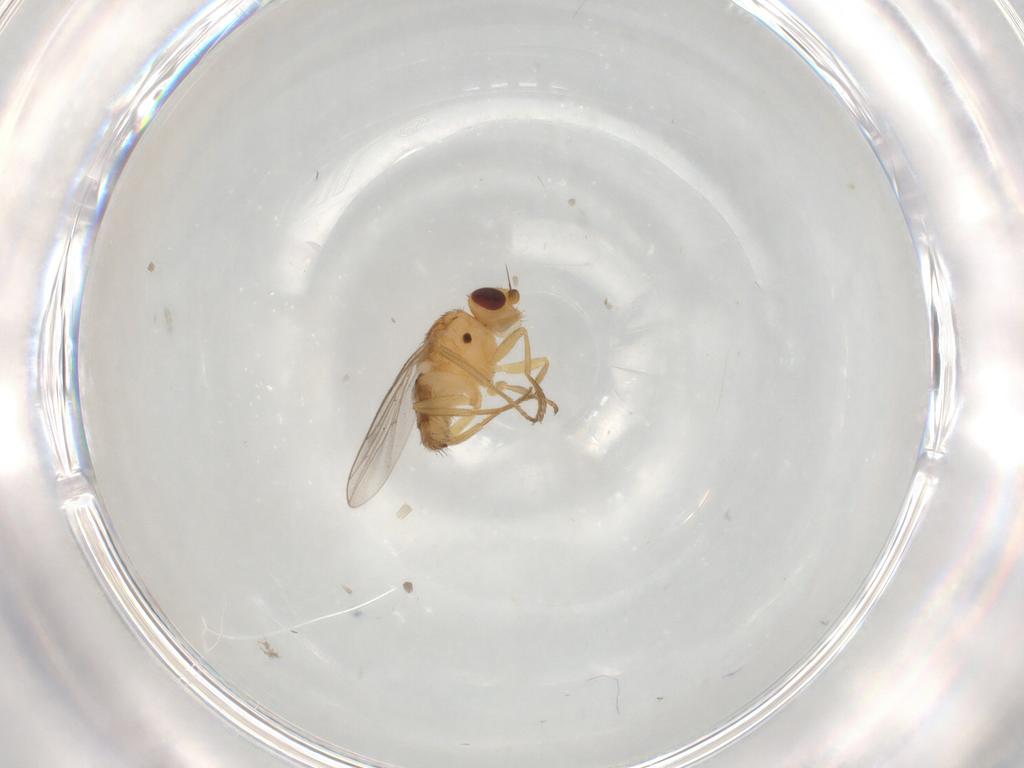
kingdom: Animalia
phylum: Arthropoda
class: Insecta
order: Diptera
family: Chloropidae
